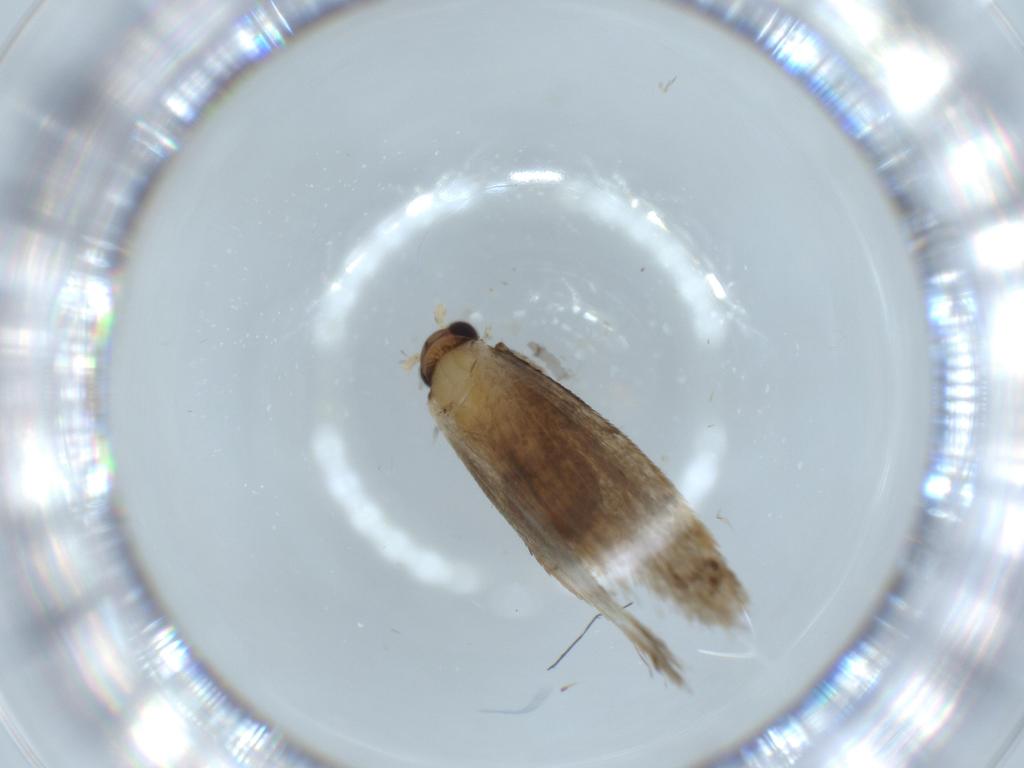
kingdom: Animalia
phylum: Arthropoda
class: Insecta
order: Lepidoptera
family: Tineidae
